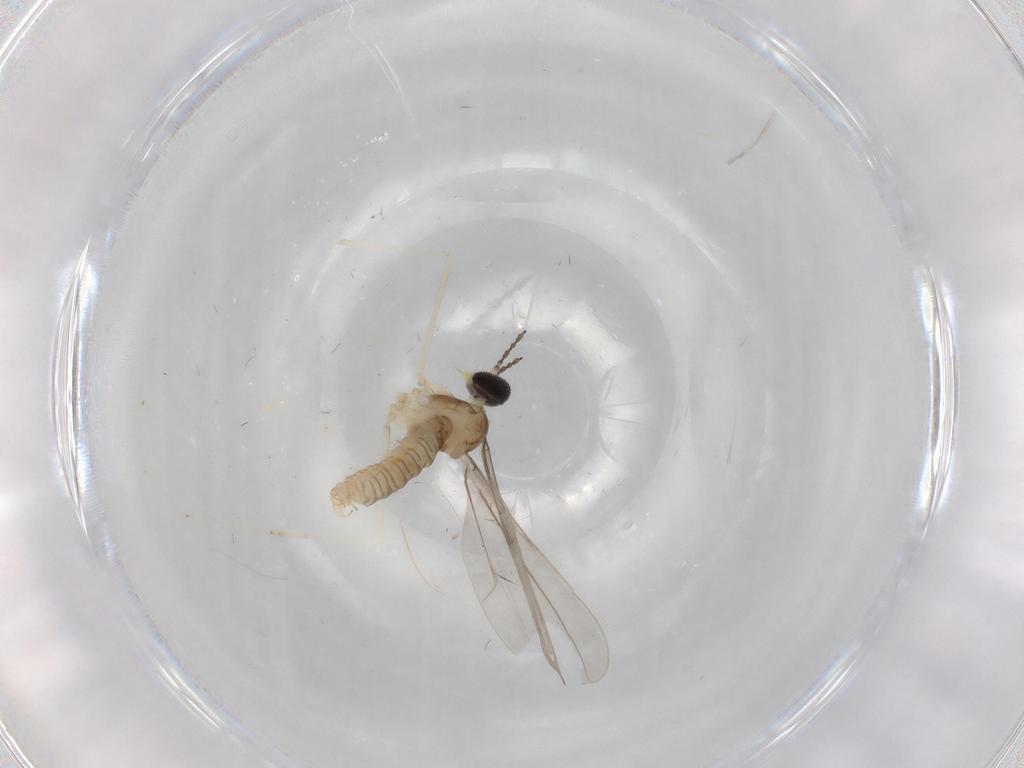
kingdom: Animalia
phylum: Arthropoda
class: Insecta
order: Diptera
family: Cecidomyiidae
